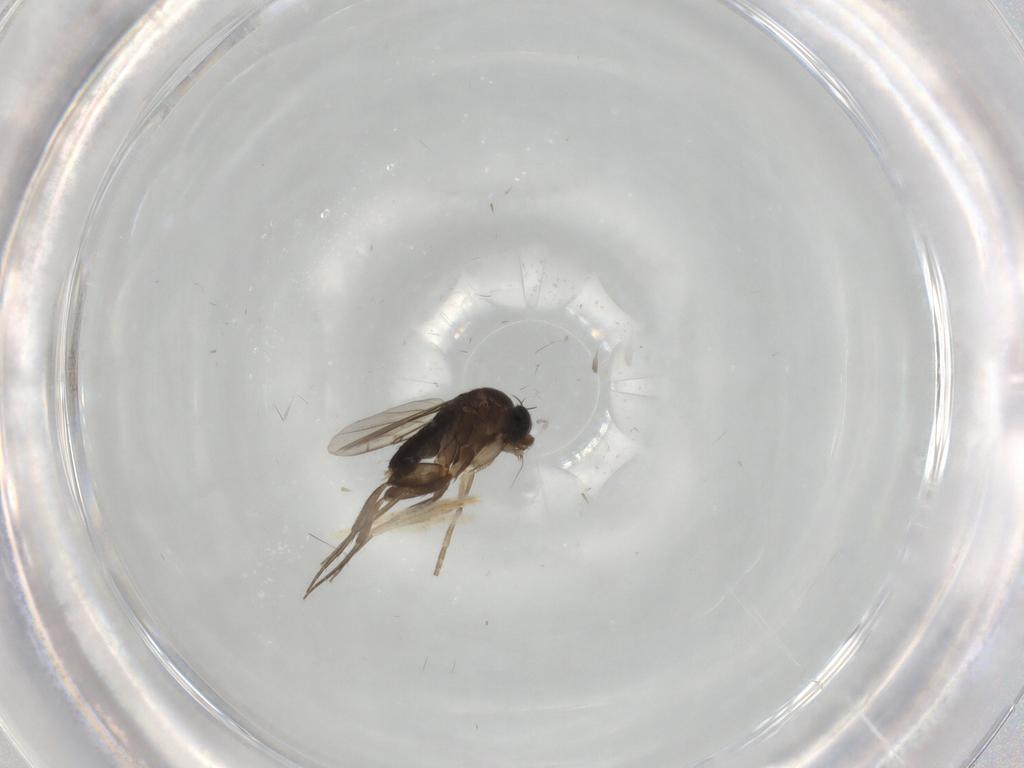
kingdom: Animalia
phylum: Arthropoda
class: Insecta
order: Diptera
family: Phoridae
